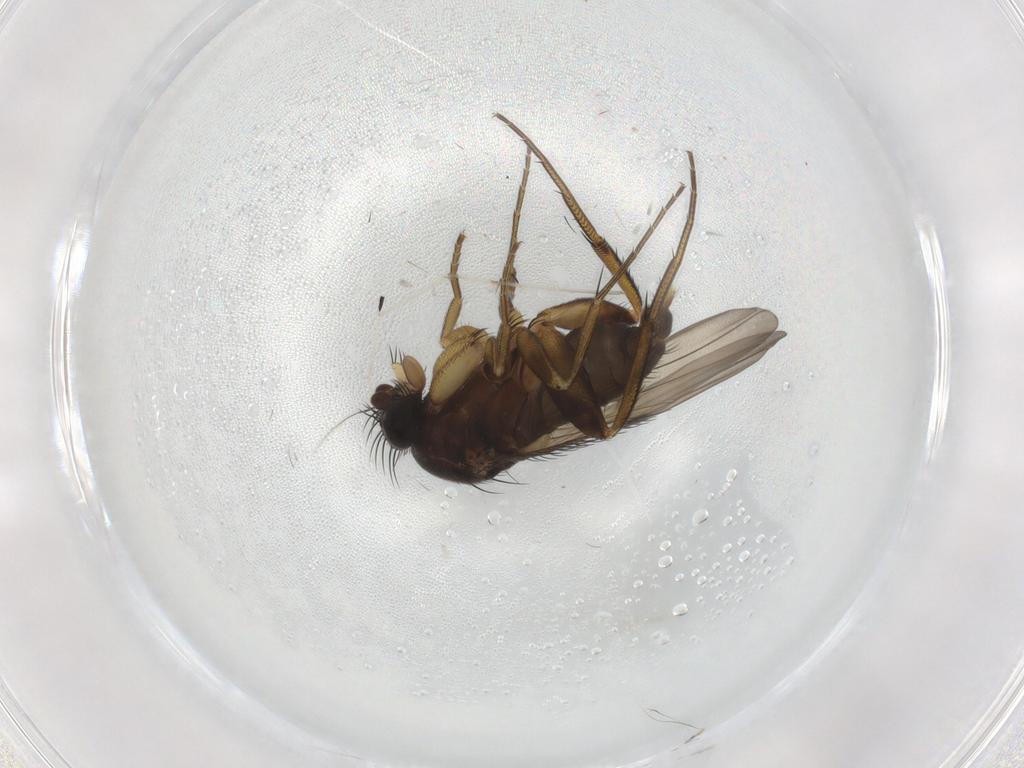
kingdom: Animalia
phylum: Arthropoda
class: Insecta
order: Diptera
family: Phoridae
